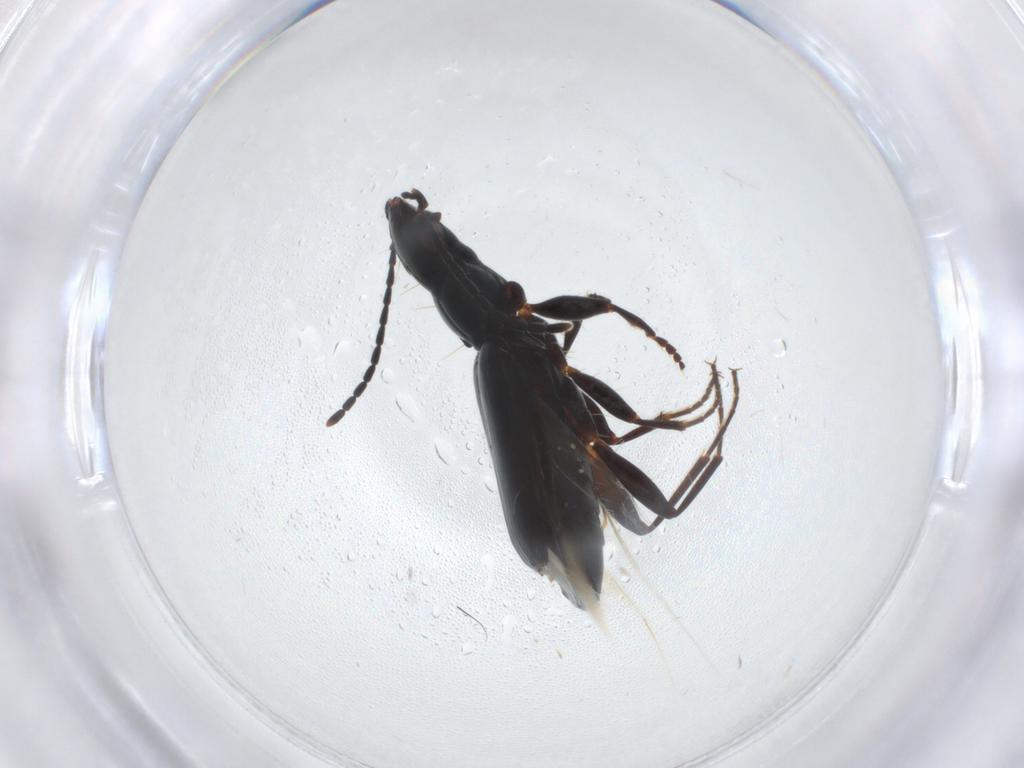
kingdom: Animalia
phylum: Arthropoda
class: Insecta
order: Coleoptera
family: Carabidae
